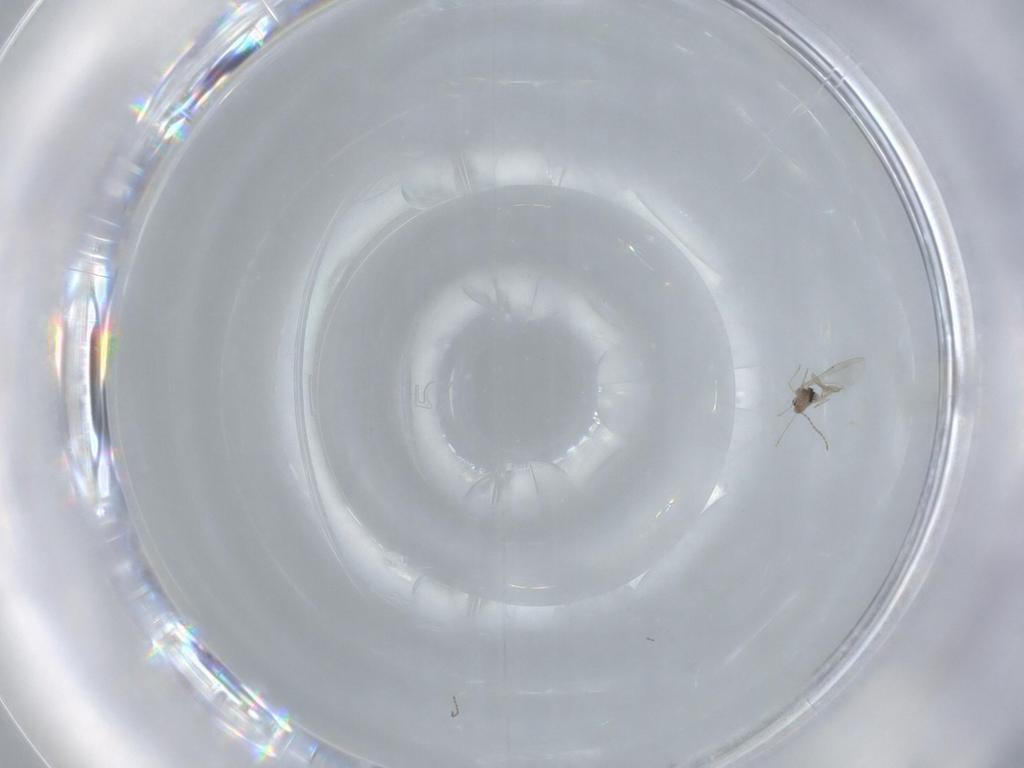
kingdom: Animalia
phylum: Arthropoda
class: Insecta
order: Diptera
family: Cecidomyiidae
